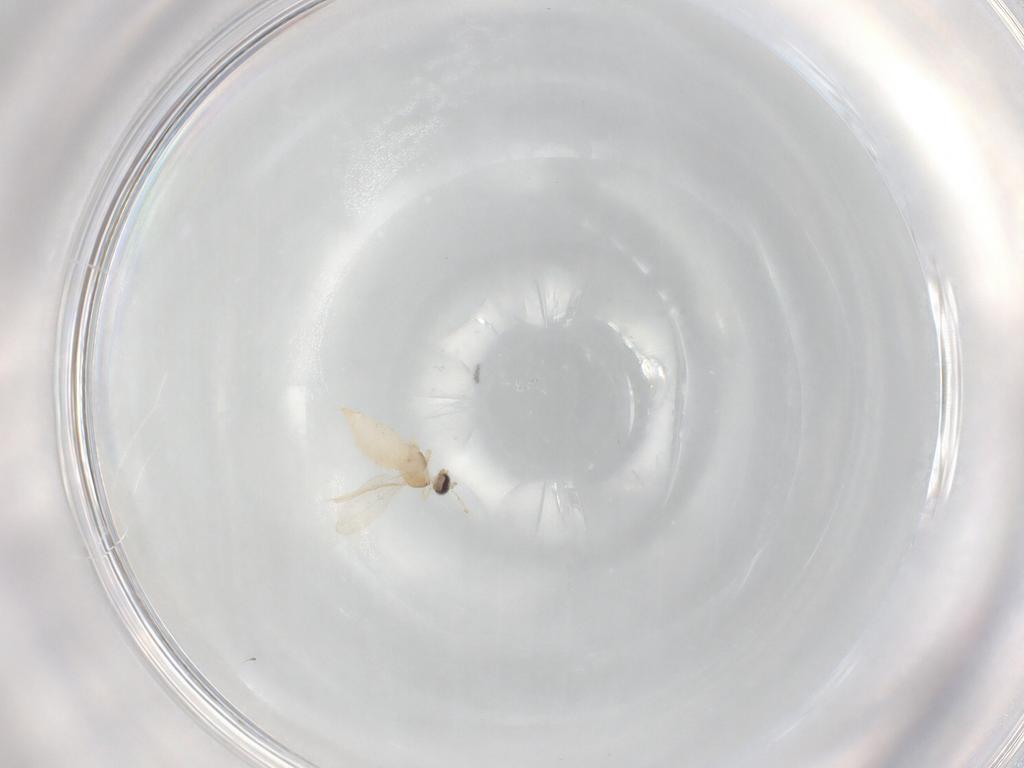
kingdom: Animalia
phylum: Arthropoda
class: Insecta
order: Diptera
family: Cecidomyiidae
